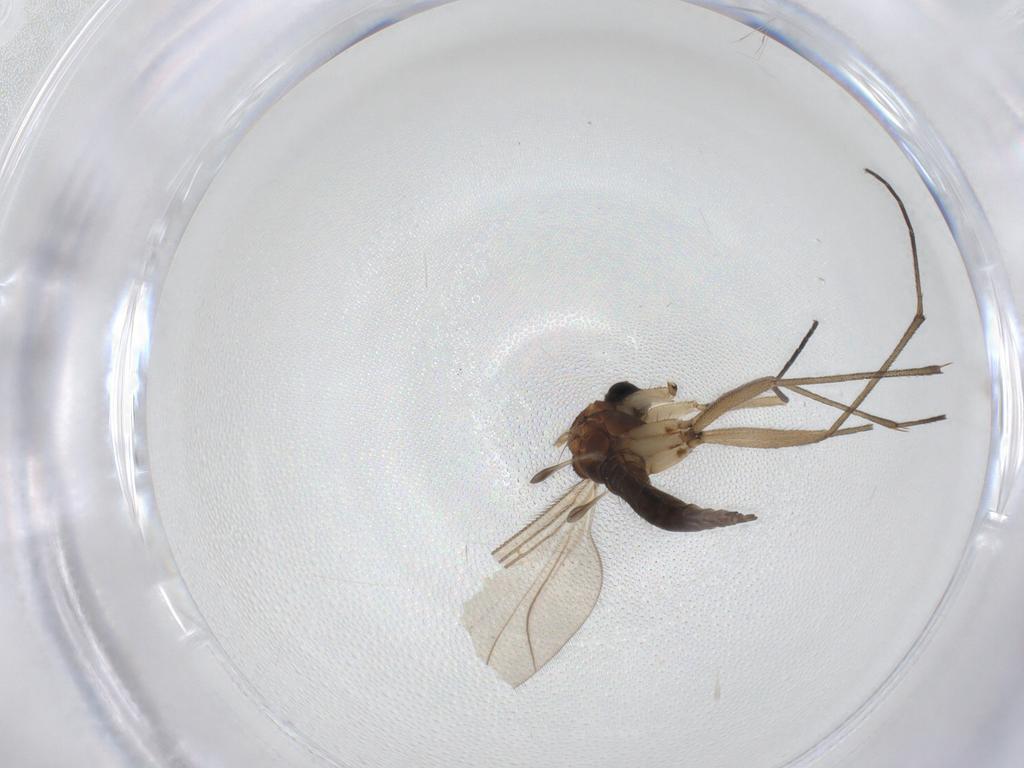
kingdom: Animalia
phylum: Arthropoda
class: Insecta
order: Diptera
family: Sciaridae
